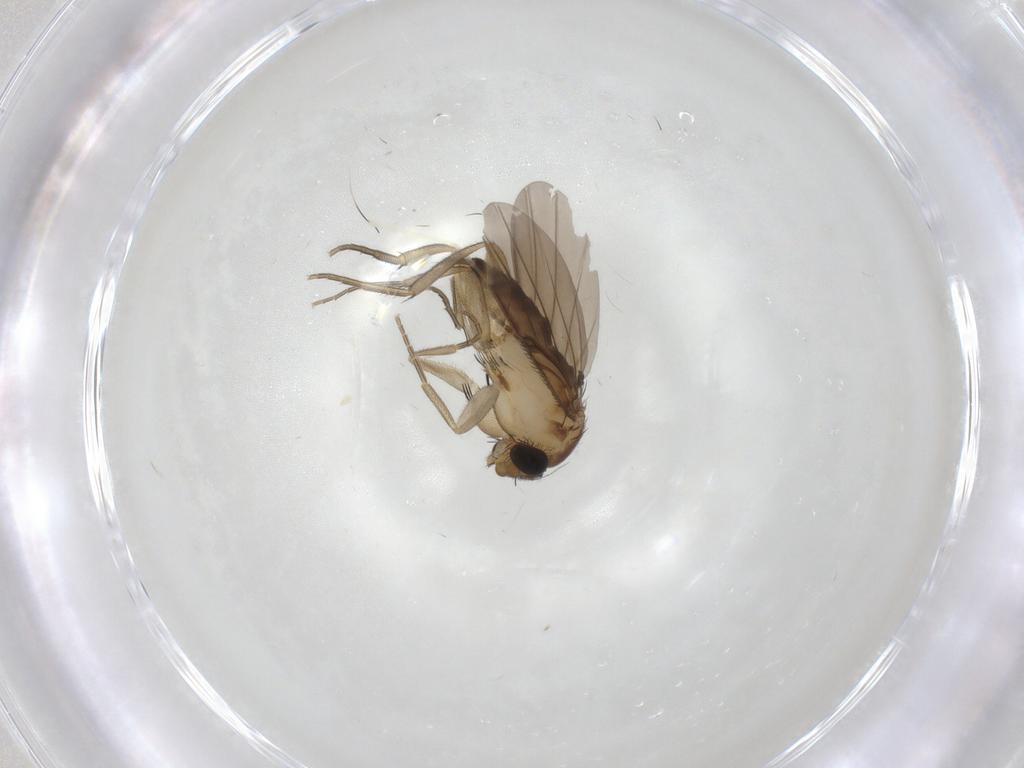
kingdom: Animalia
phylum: Arthropoda
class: Insecta
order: Diptera
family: Phoridae
